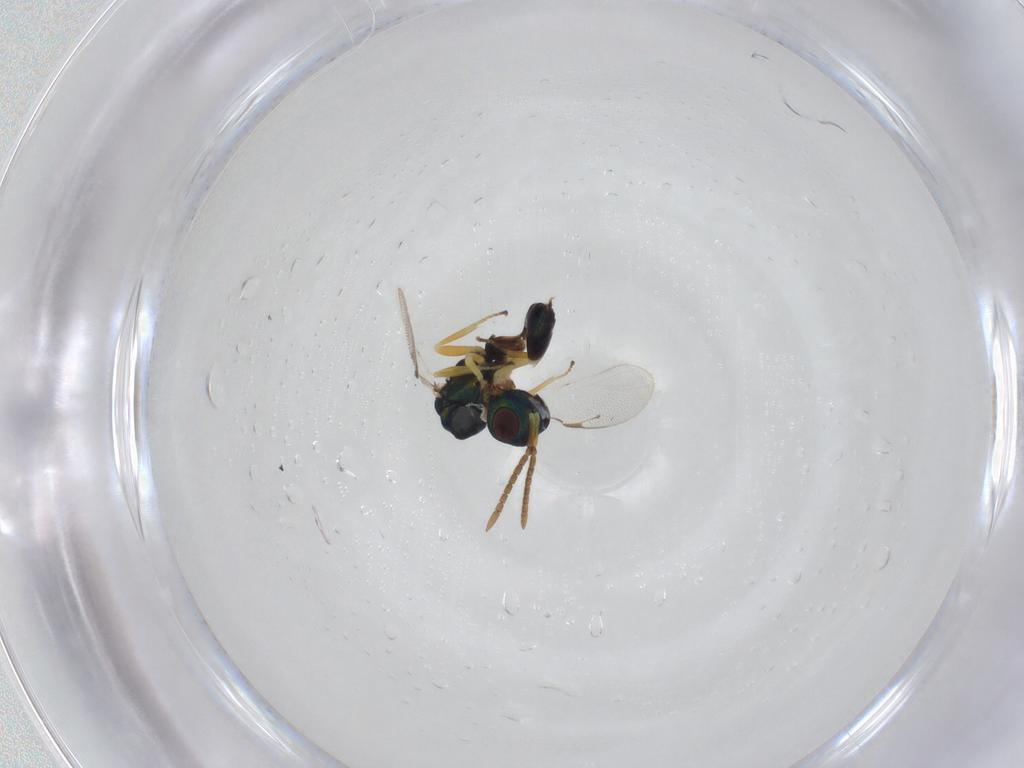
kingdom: Animalia
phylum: Arthropoda
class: Insecta
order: Hymenoptera
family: Pteromalidae
